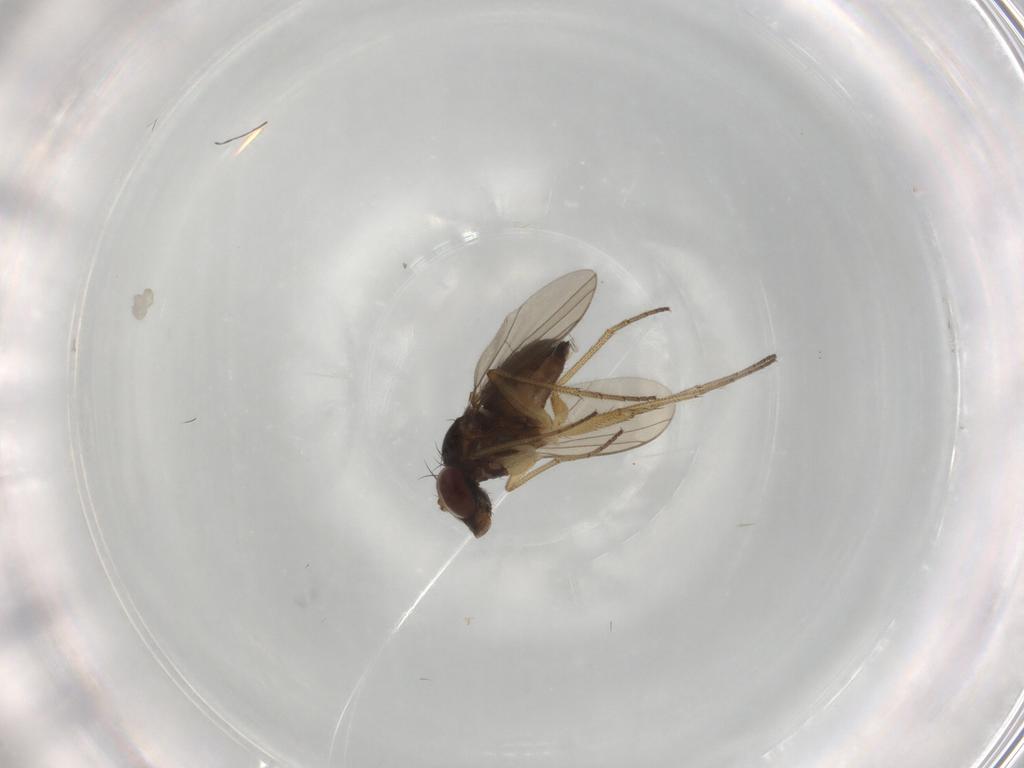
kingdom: Animalia
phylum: Arthropoda
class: Insecta
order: Diptera
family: Dolichopodidae
